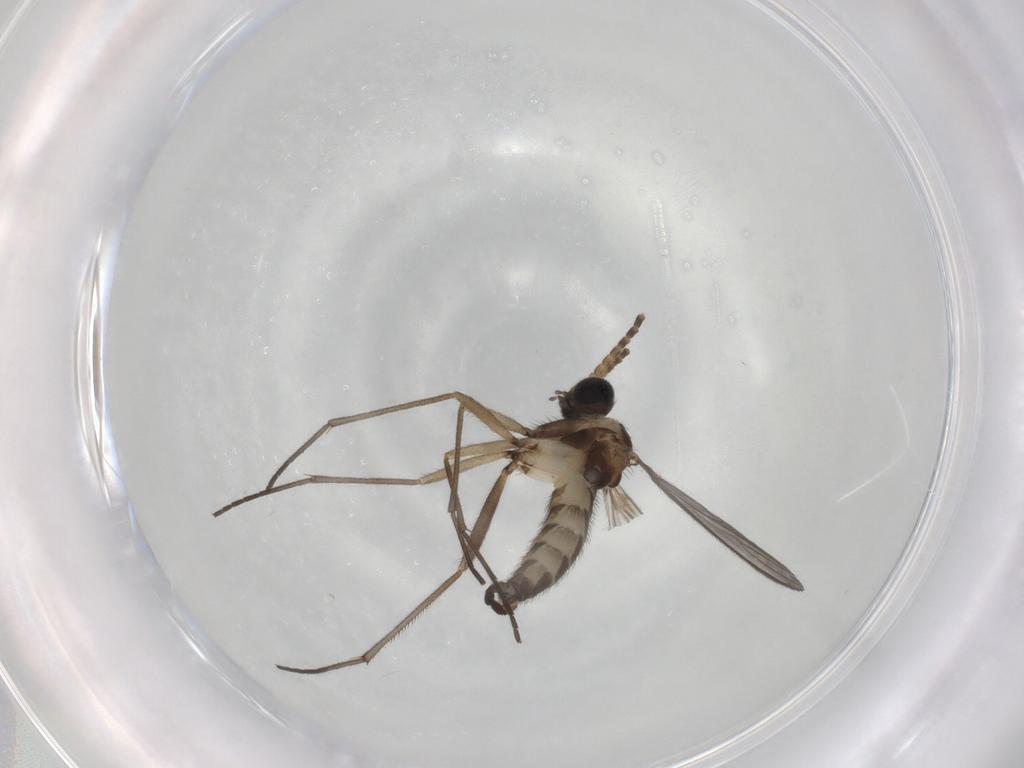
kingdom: Animalia
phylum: Arthropoda
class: Insecta
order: Diptera
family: Sciaridae
